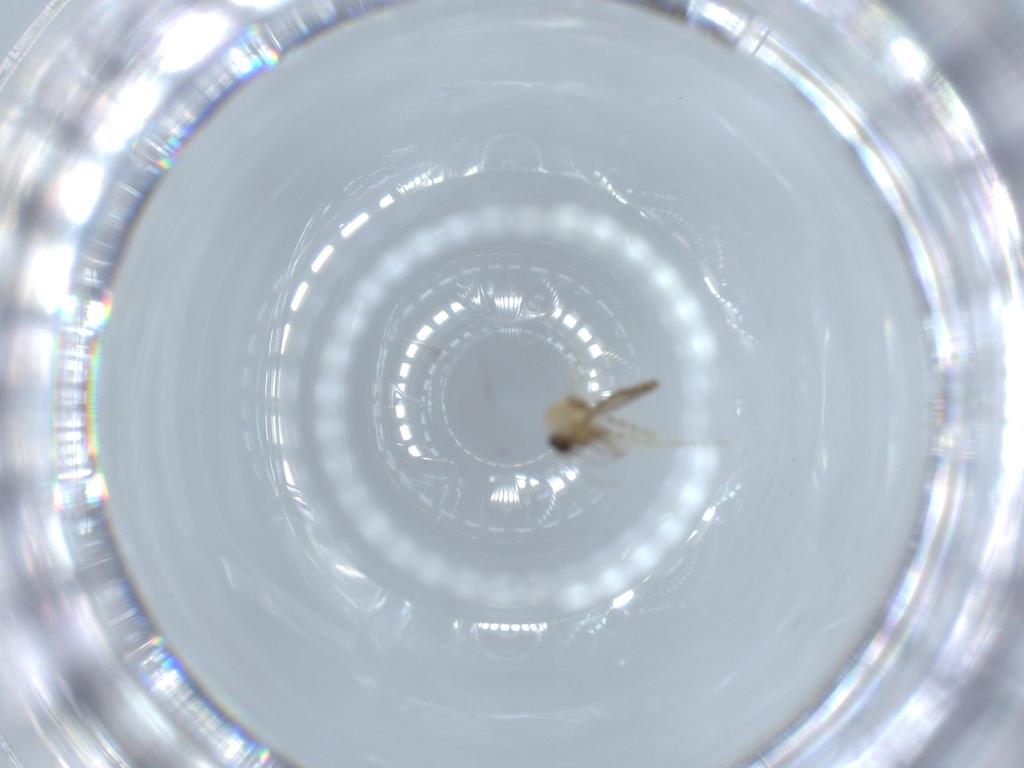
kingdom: Animalia
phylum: Arthropoda
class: Insecta
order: Diptera
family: Ceratopogonidae
